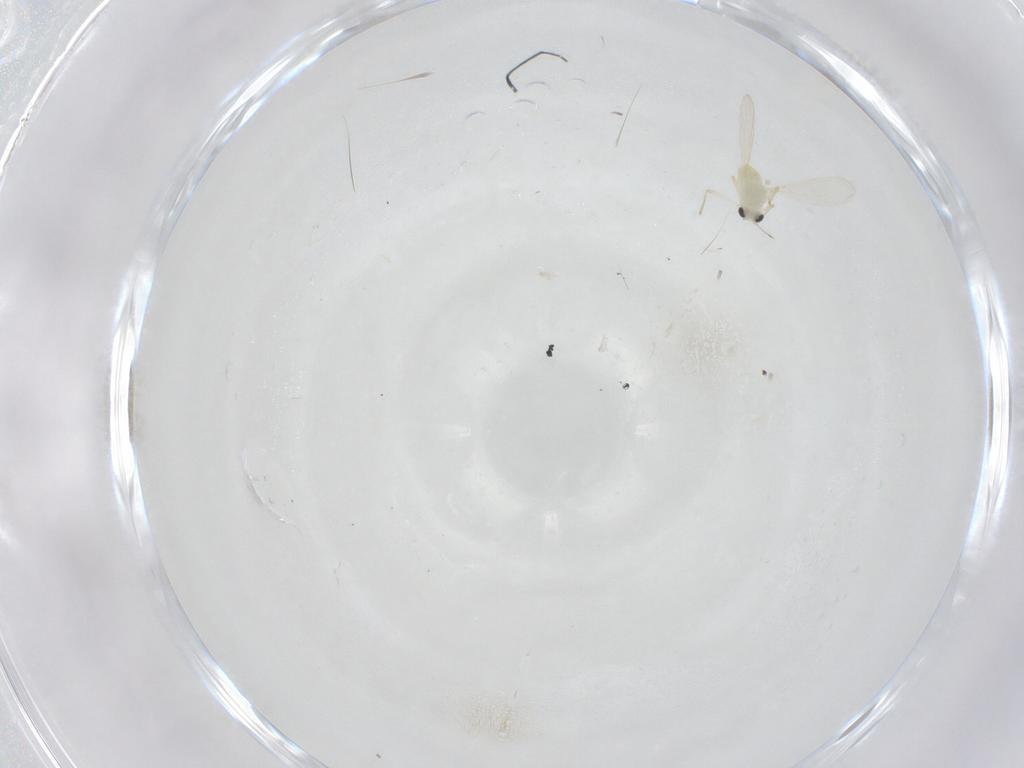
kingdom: Animalia
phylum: Arthropoda
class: Insecta
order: Diptera
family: Chironomidae
